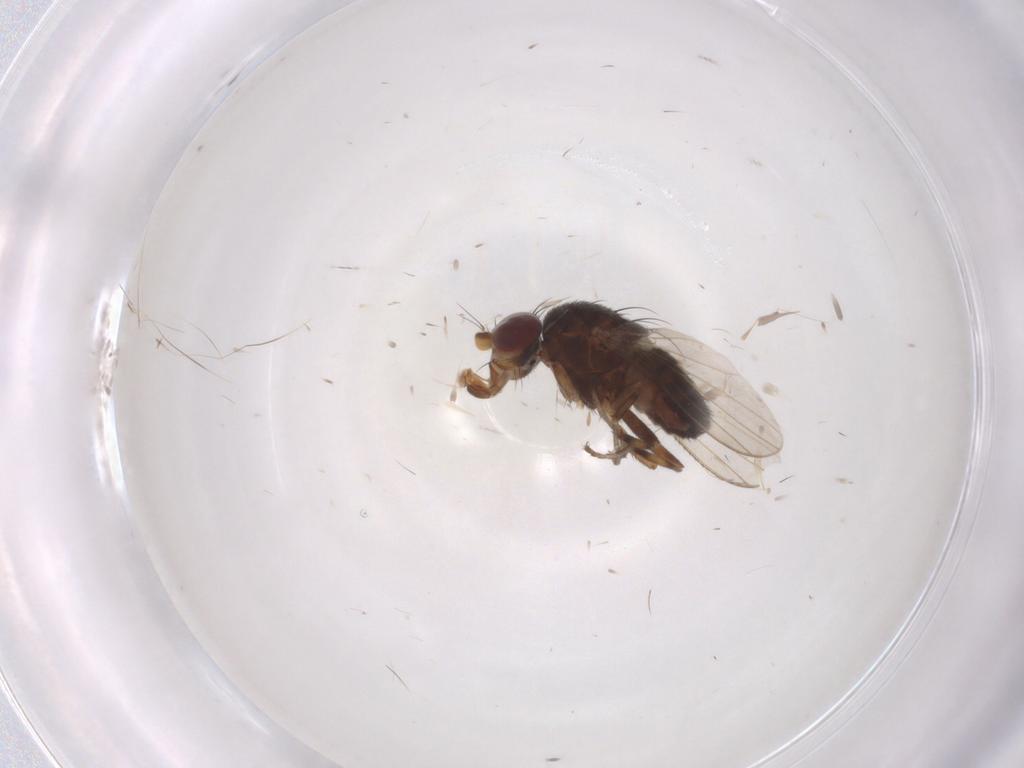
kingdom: Animalia
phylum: Arthropoda
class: Insecta
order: Diptera
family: Heleomyzidae
